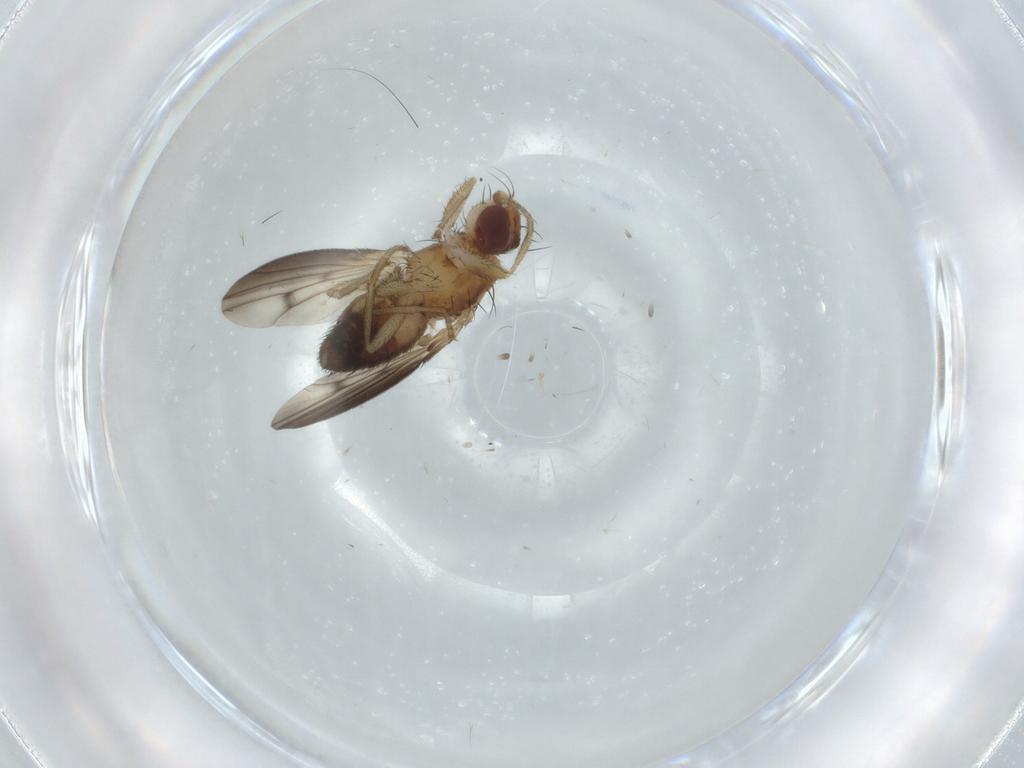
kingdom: Animalia
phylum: Arthropoda
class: Insecta
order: Diptera
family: Heleomyzidae
